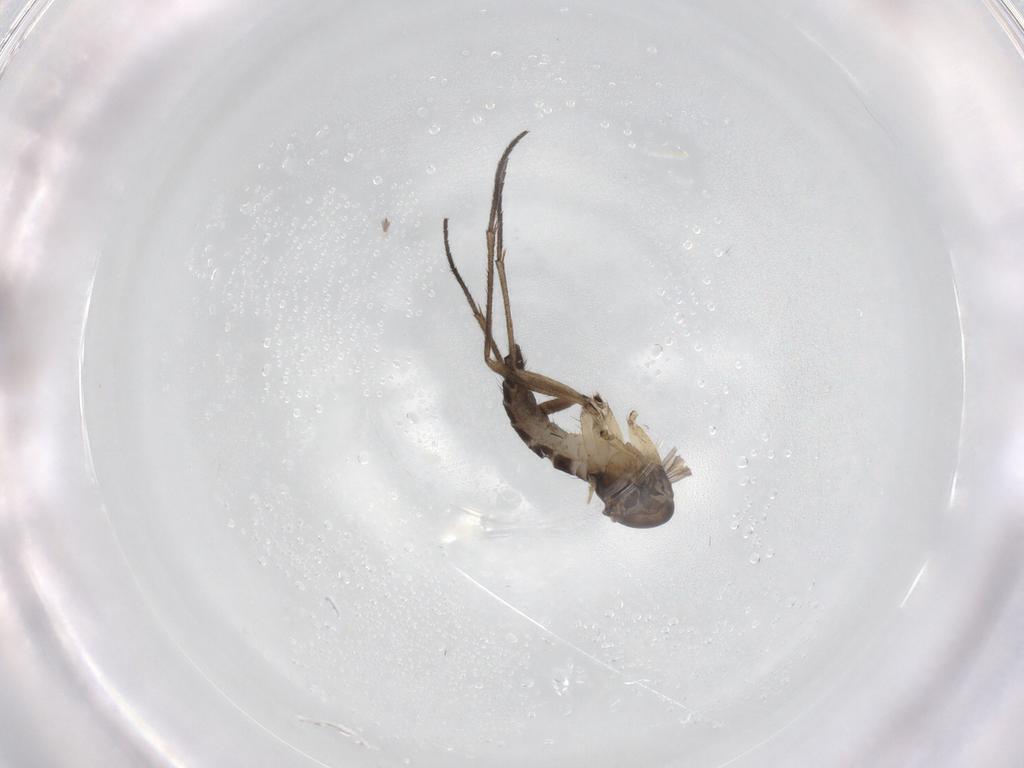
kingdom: Animalia
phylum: Arthropoda
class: Insecta
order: Diptera
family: Sciaridae
